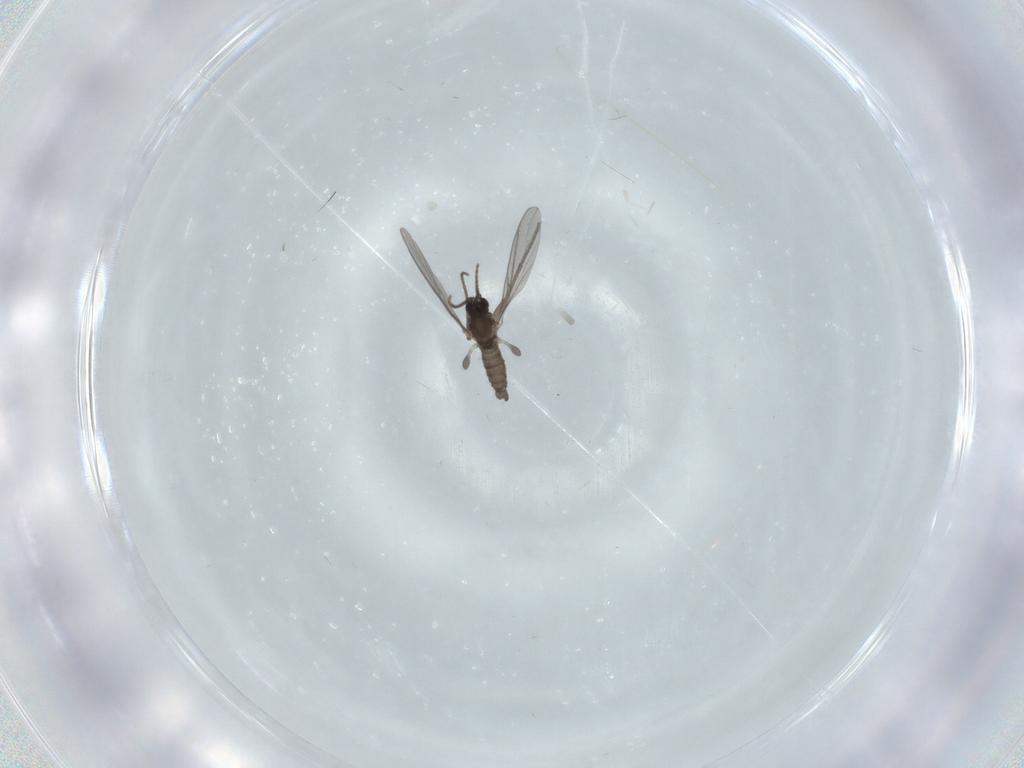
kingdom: Animalia
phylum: Arthropoda
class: Insecta
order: Diptera
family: Sciaridae
